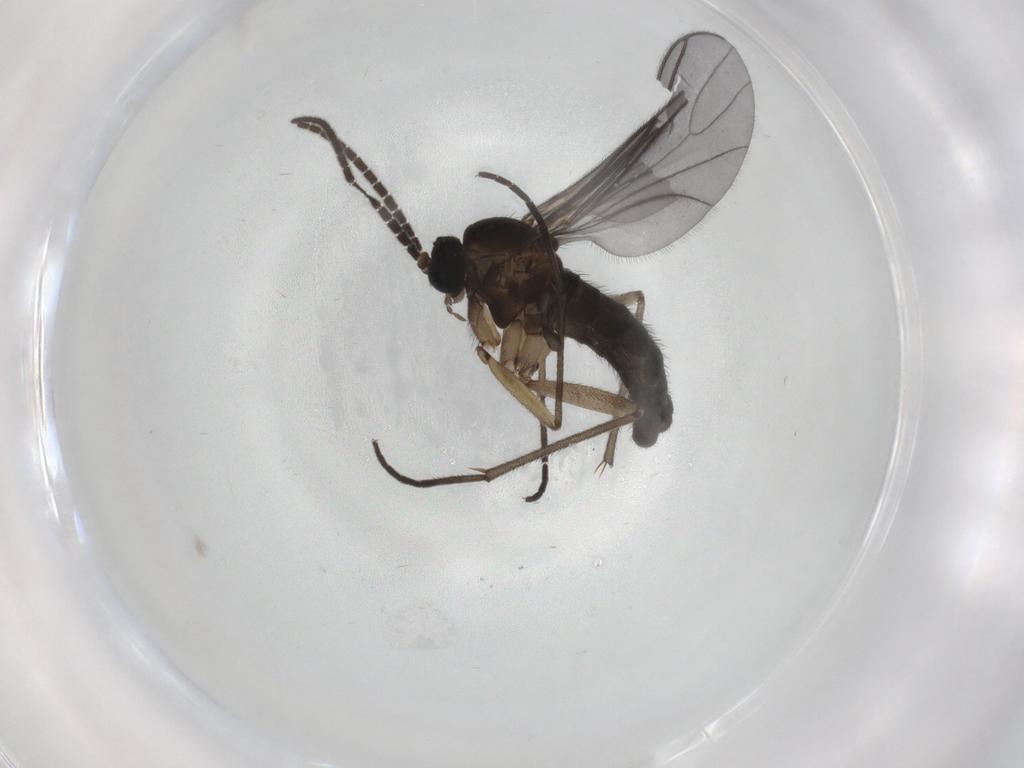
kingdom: Animalia
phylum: Arthropoda
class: Insecta
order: Diptera
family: Sciaridae
